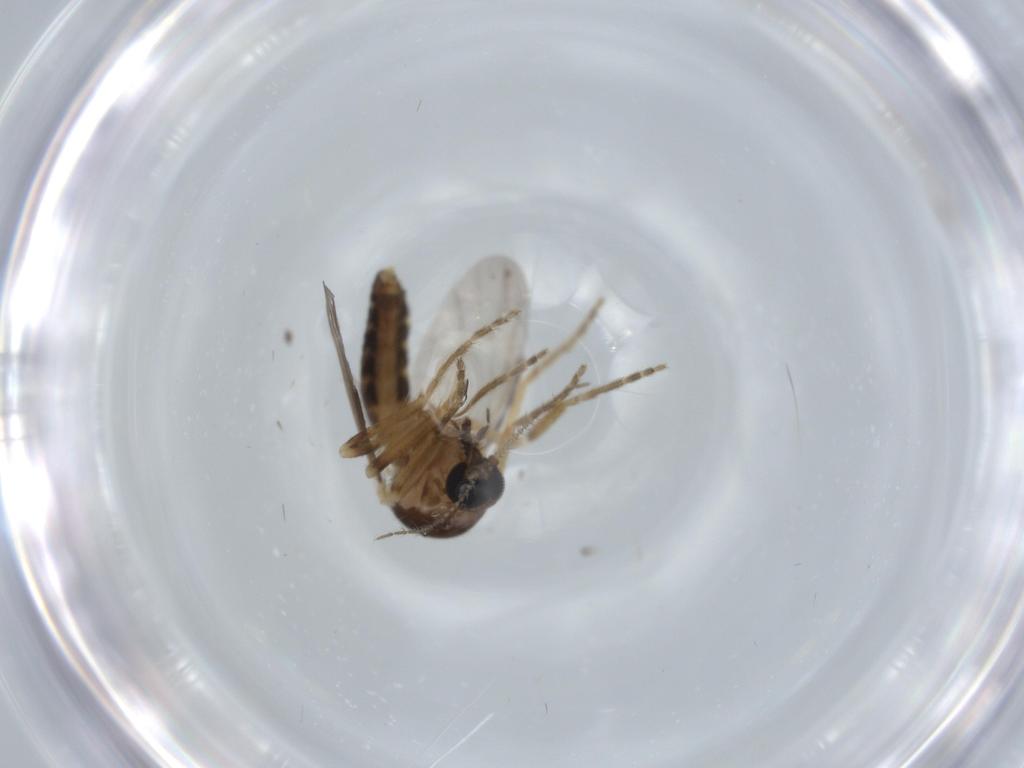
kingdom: Animalia
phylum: Arthropoda
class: Insecta
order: Diptera
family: Ceratopogonidae
